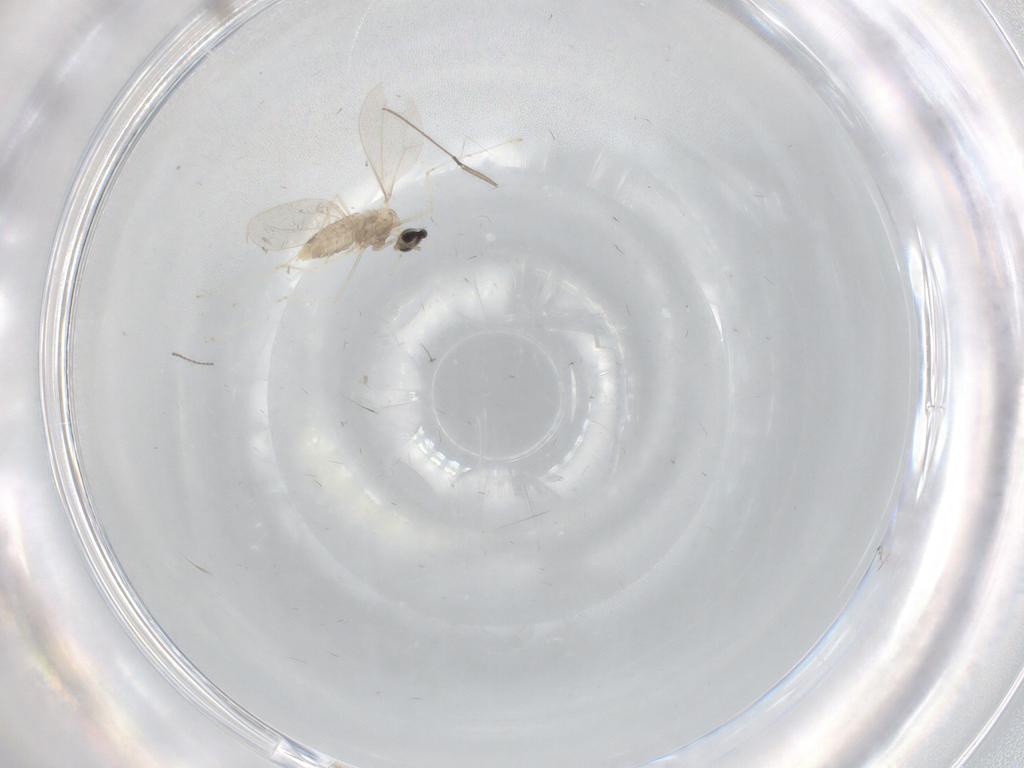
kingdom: Animalia
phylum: Arthropoda
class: Insecta
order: Diptera
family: Cecidomyiidae
